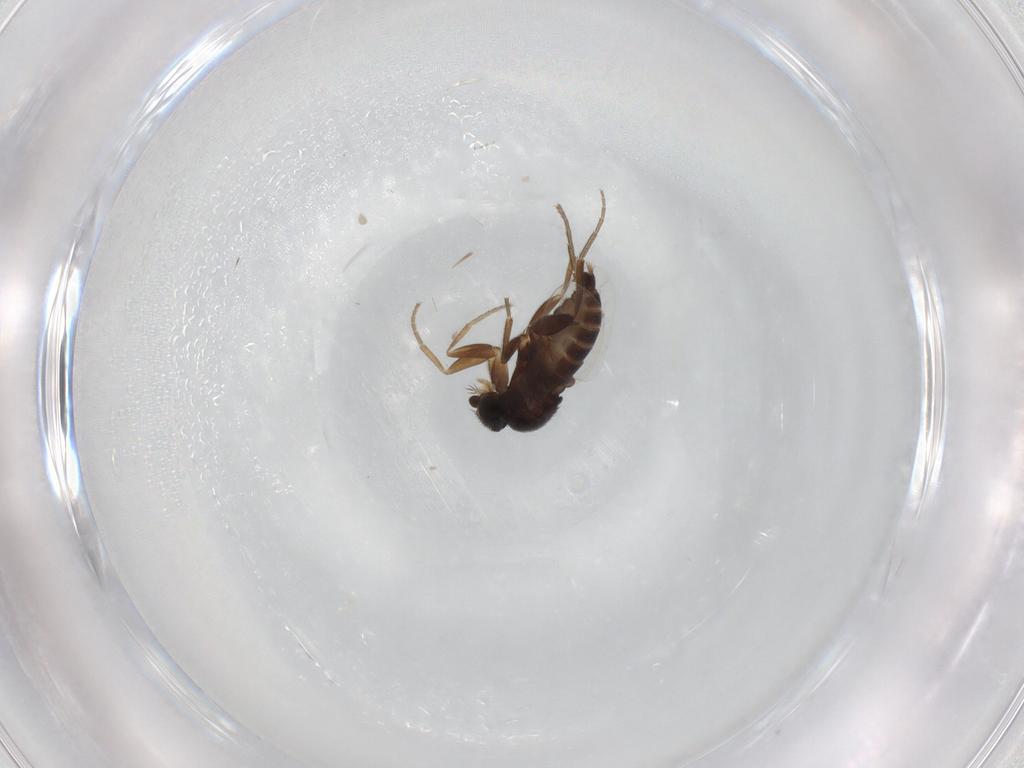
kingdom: Animalia
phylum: Arthropoda
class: Insecta
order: Diptera
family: Phoridae
